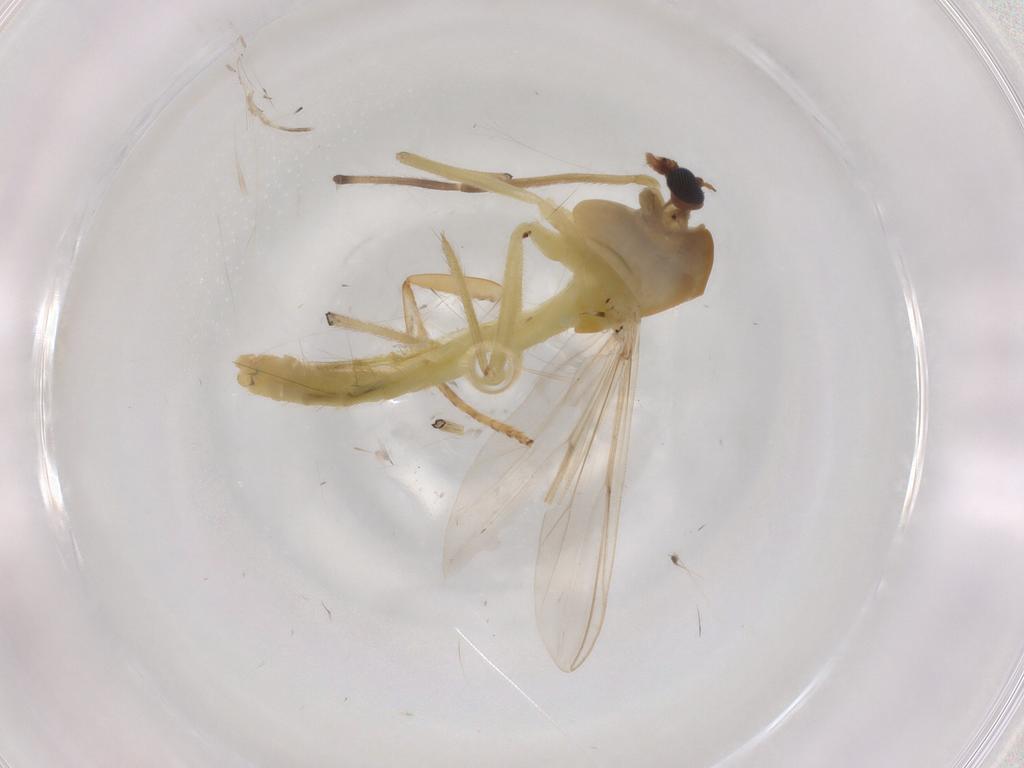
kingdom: Animalia
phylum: Arthropoda
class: Insecta
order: Diptera
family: Chironomidae
